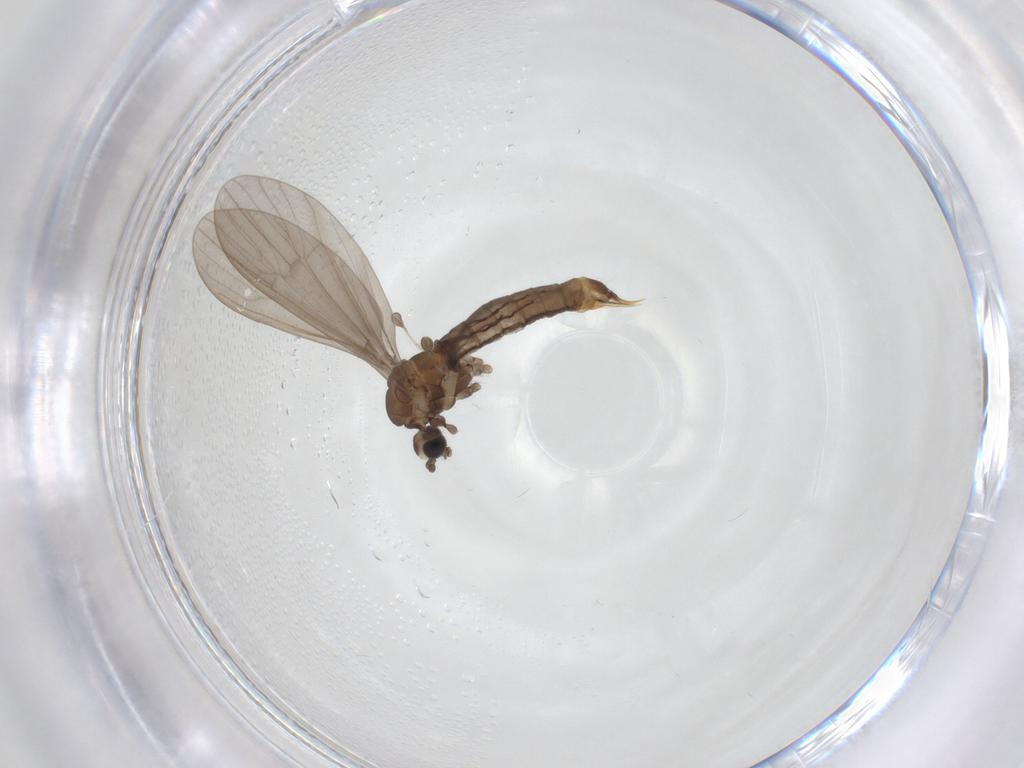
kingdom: Animalia
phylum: Arthropoda
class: Insecta
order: Diptera
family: Limoniidae
